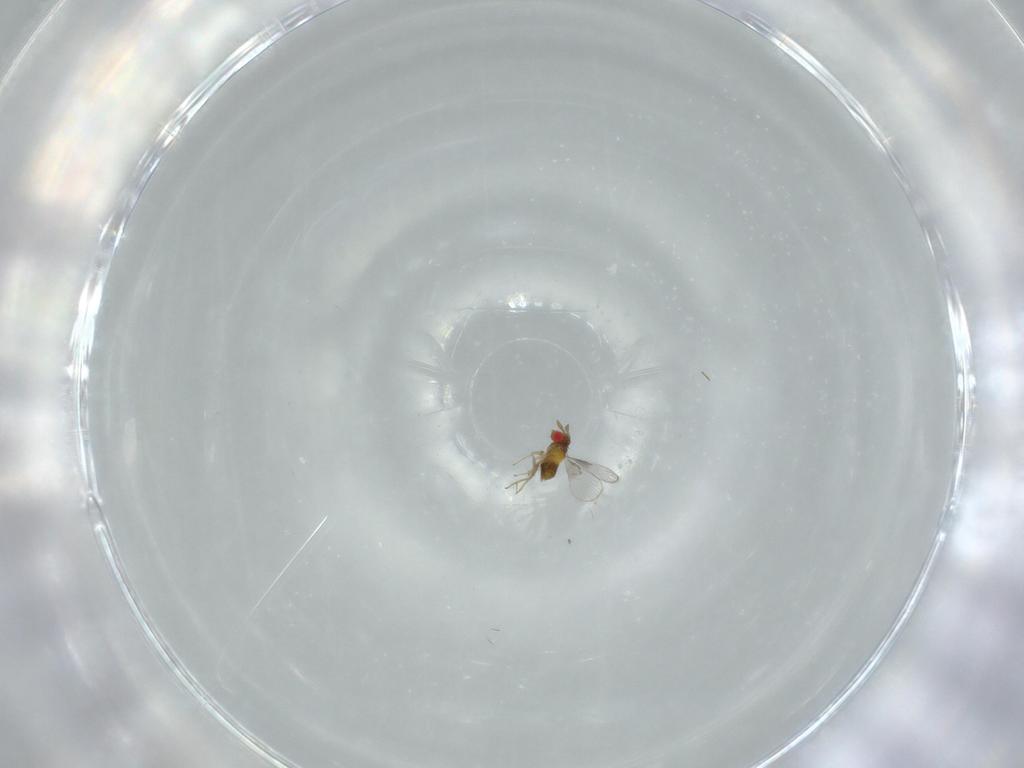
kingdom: Animalia
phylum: Arthropoda
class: Insecta
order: Hymenoptera
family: Trichogrammatidae
